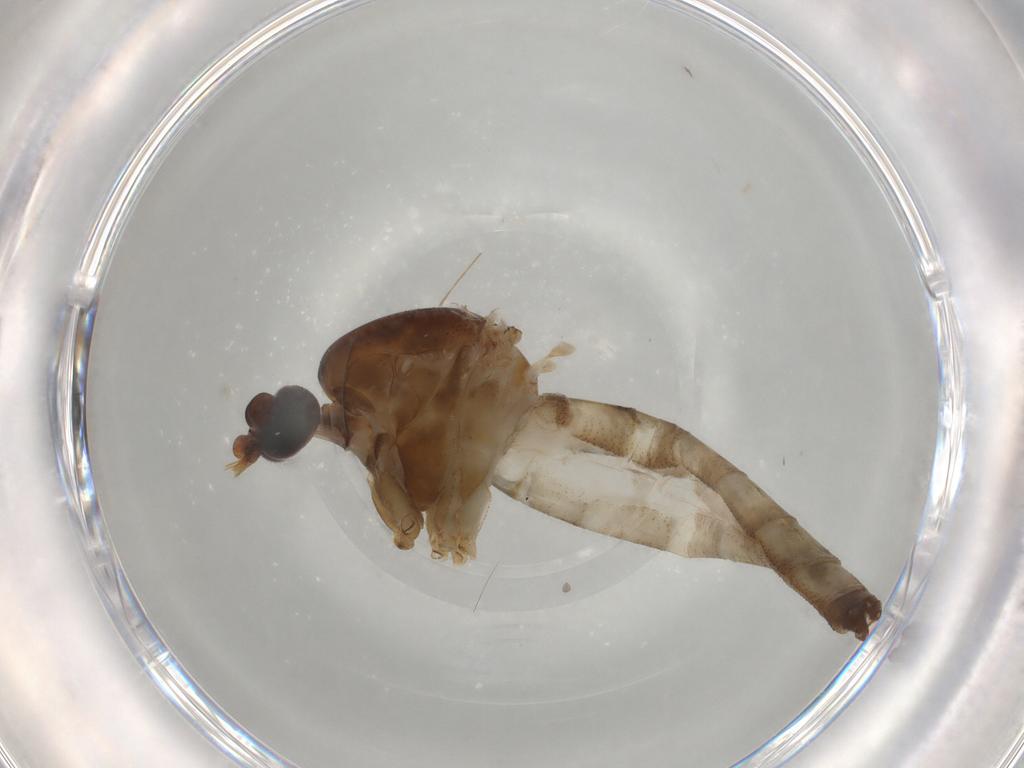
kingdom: Animalia
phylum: Arthropoda
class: Insecta
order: Diptera
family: Culicidae
